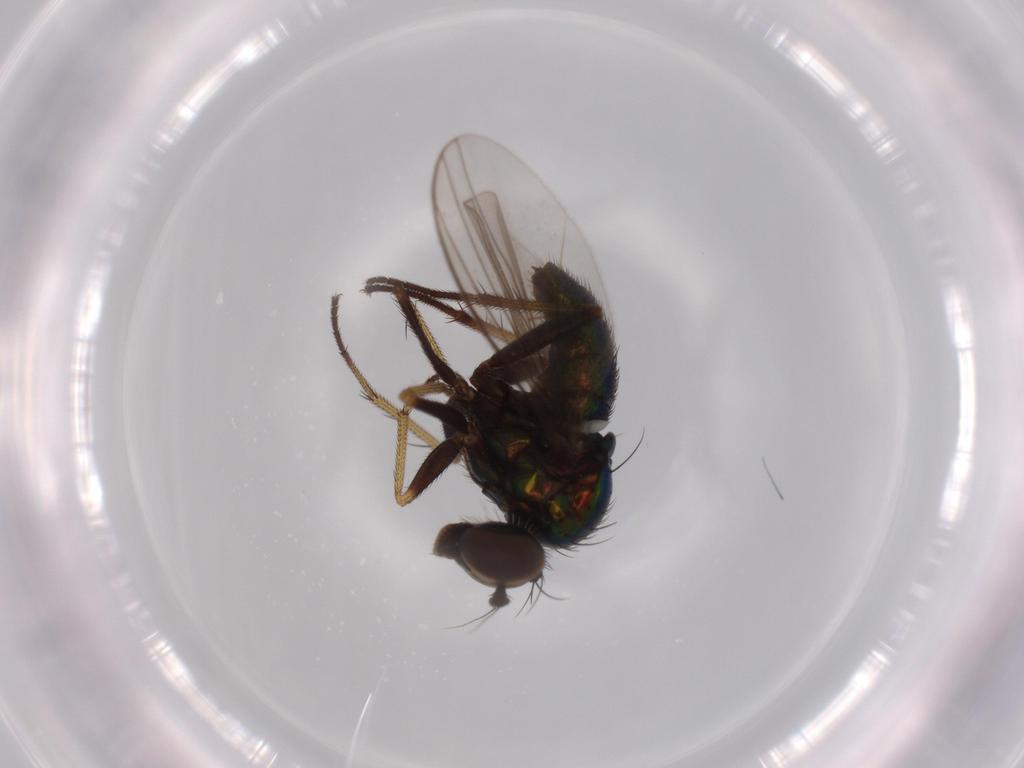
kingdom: Animalia
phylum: Arthropoda
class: Insecta
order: Diptera
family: Dolichopodidae
